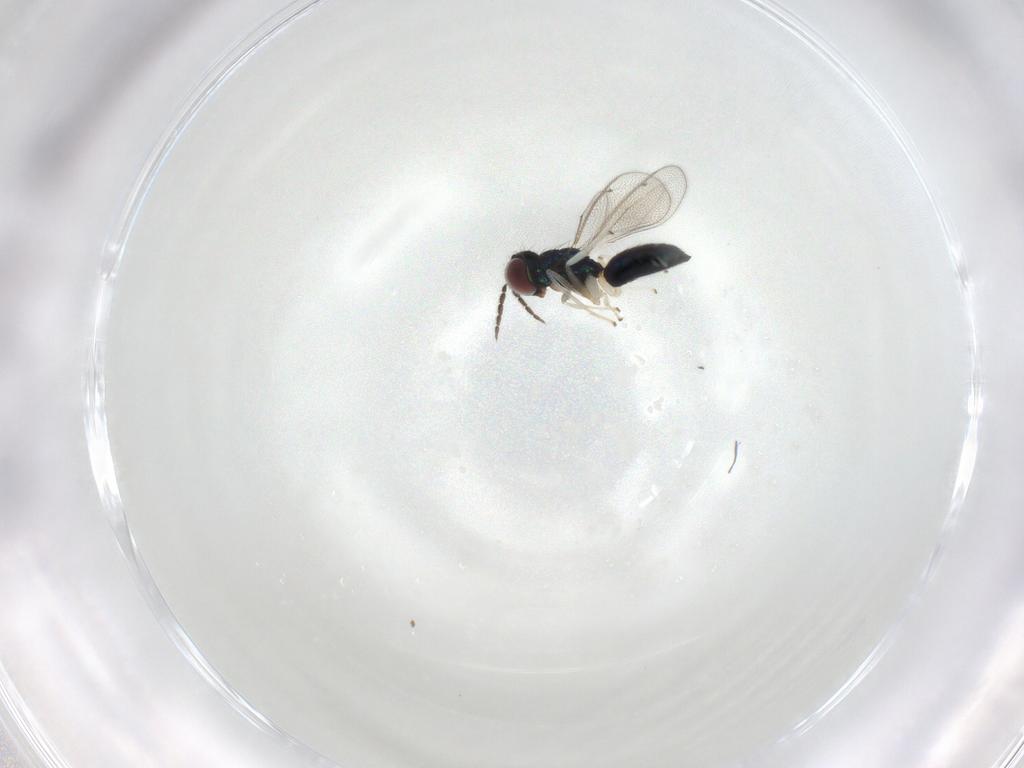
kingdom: Animalia
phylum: Arthropoda
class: Insecta
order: Hymenoptera
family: Eulophidae
